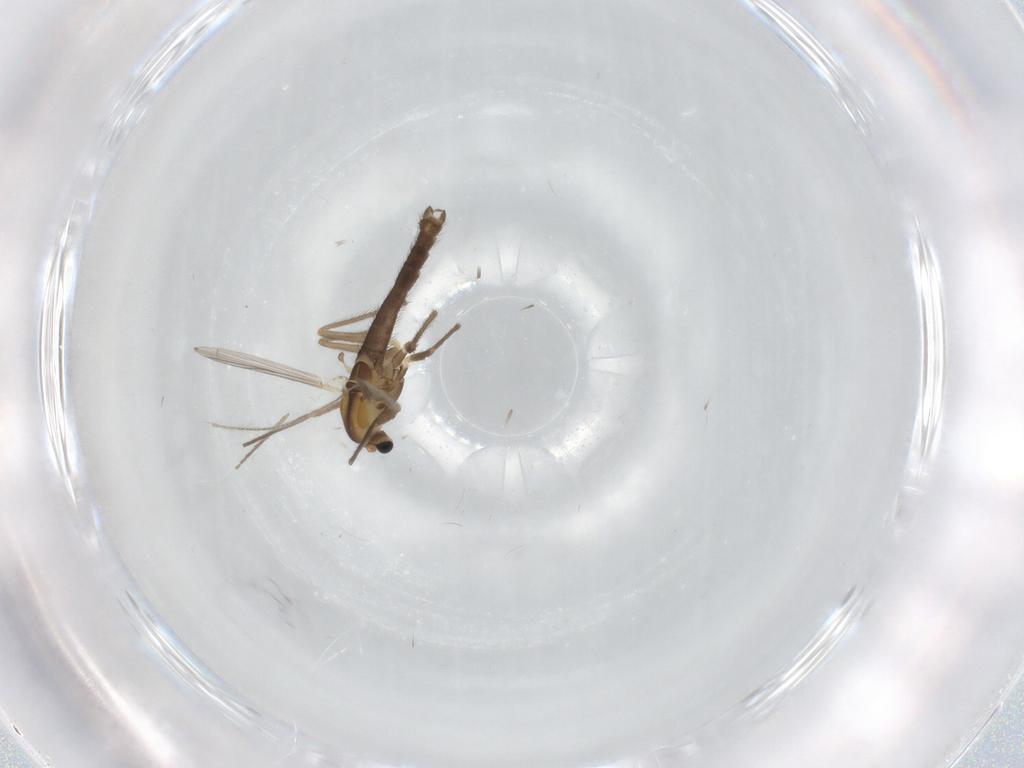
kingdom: Animalia
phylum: Arthropoda
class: Insecta
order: Diptera
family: Chironomidae
